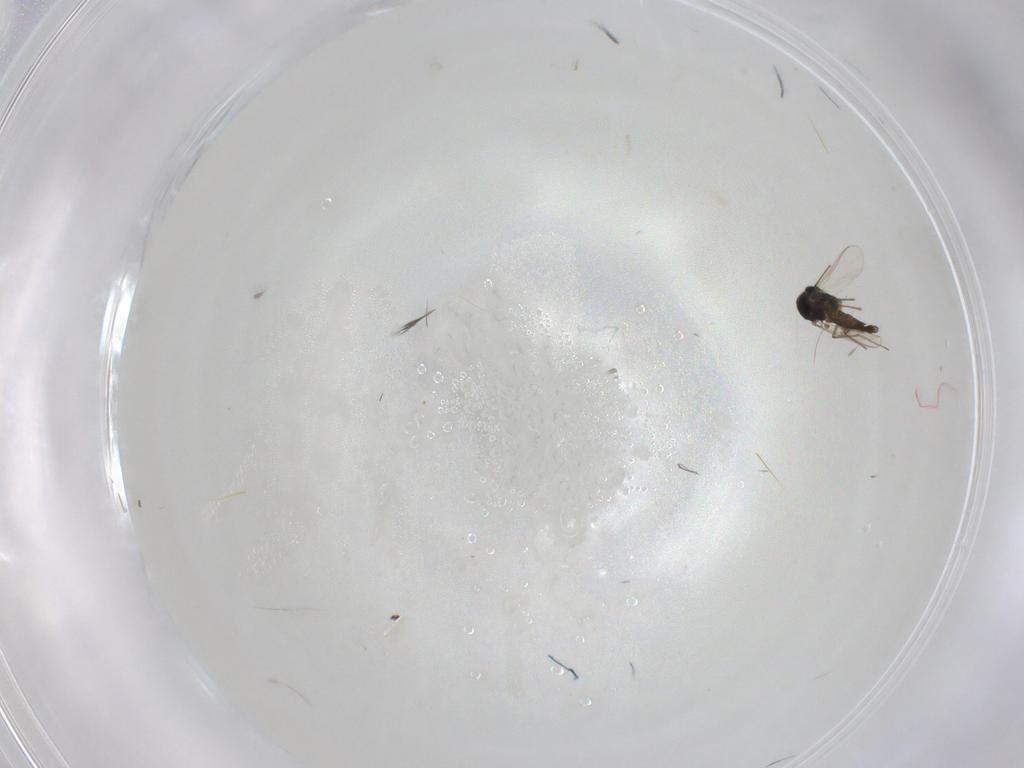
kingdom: Animalia
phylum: Arthropoda
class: Insecta
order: Diptera
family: Chironomidae
